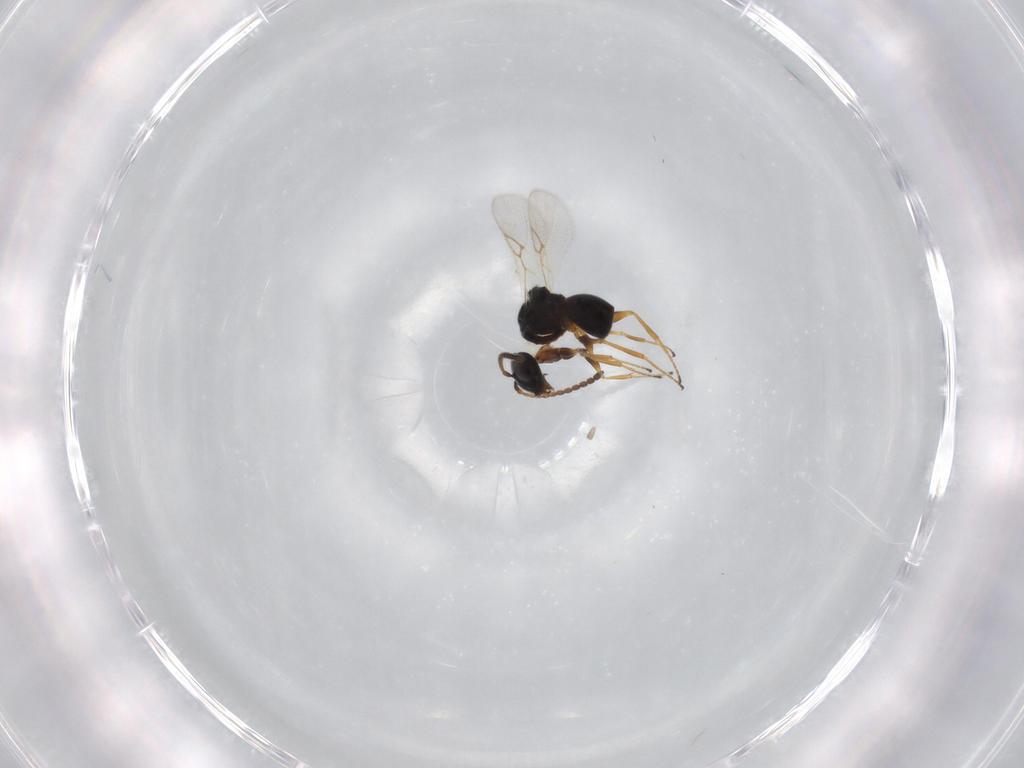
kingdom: Animalia
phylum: Arthropoda
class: Insecta
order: Hymenoptera
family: Figitidae
